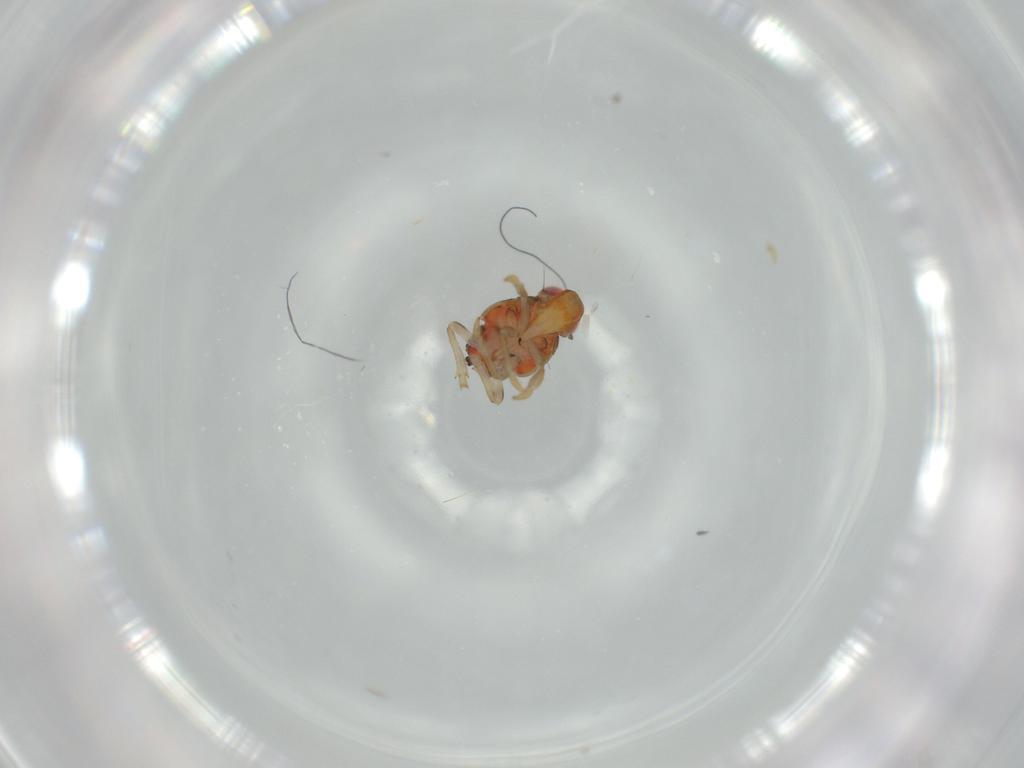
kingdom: Animalia
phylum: Arthropoda
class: Insecta
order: Hemiptera
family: Issidae
